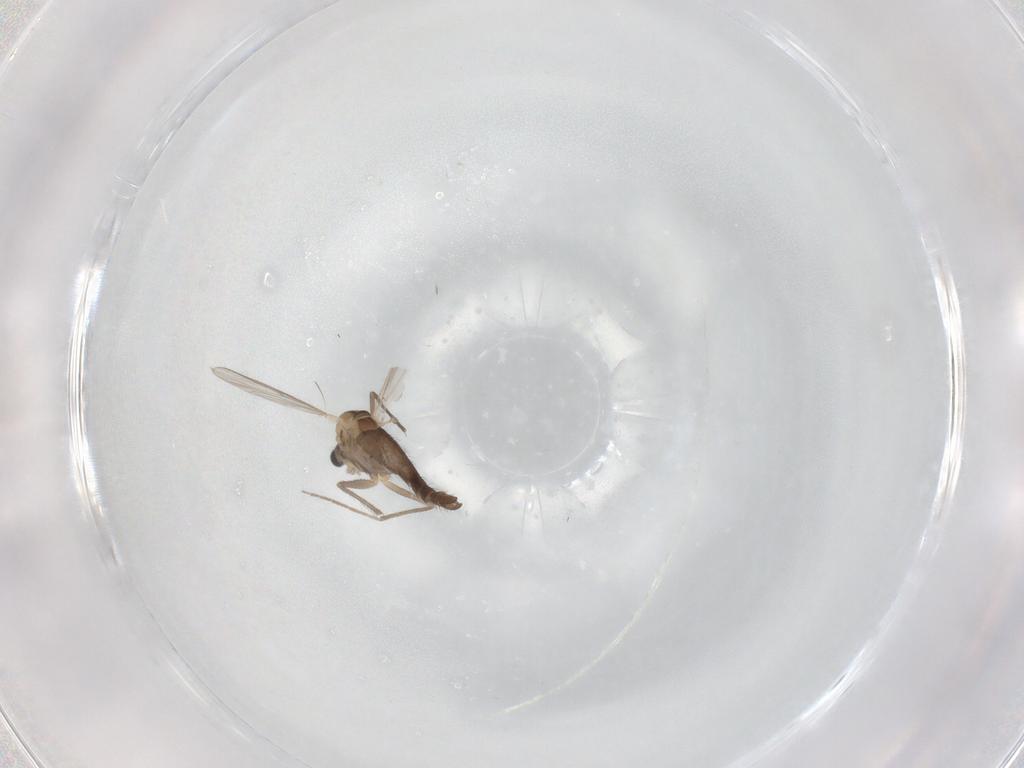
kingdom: Animalia
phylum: Arthropoda
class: Insecta
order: Diptera
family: Chironomidae
